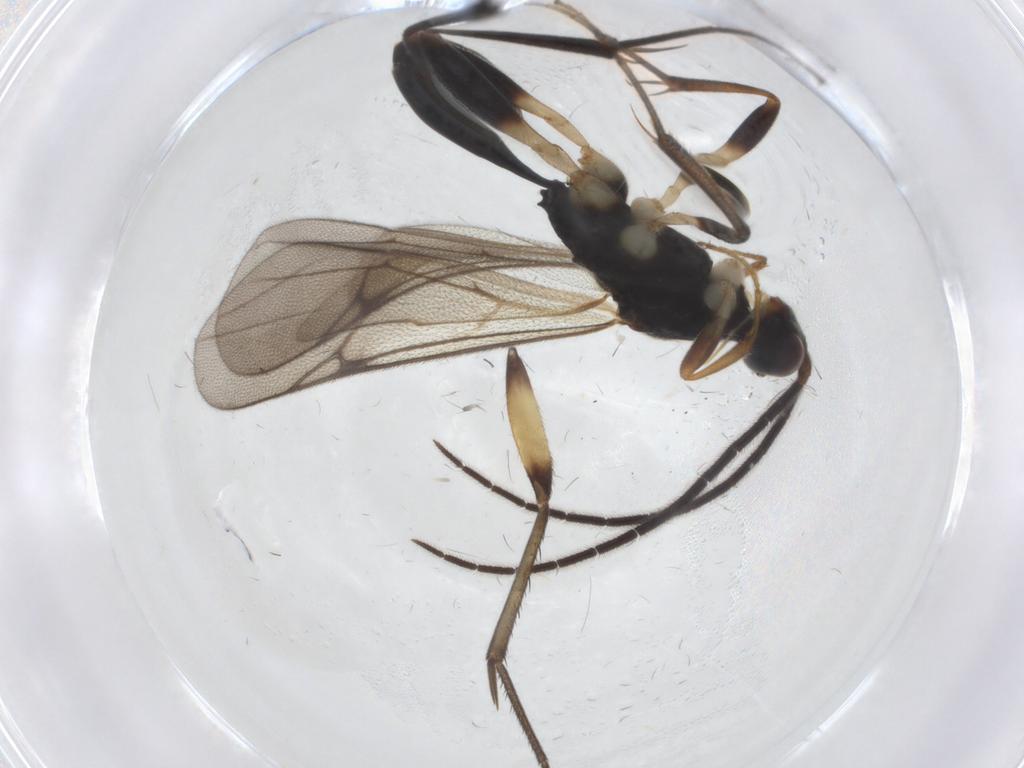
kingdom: Animalia
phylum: Arthropoda
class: Insecta
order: Hymenoptera
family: Proctotrupidae
